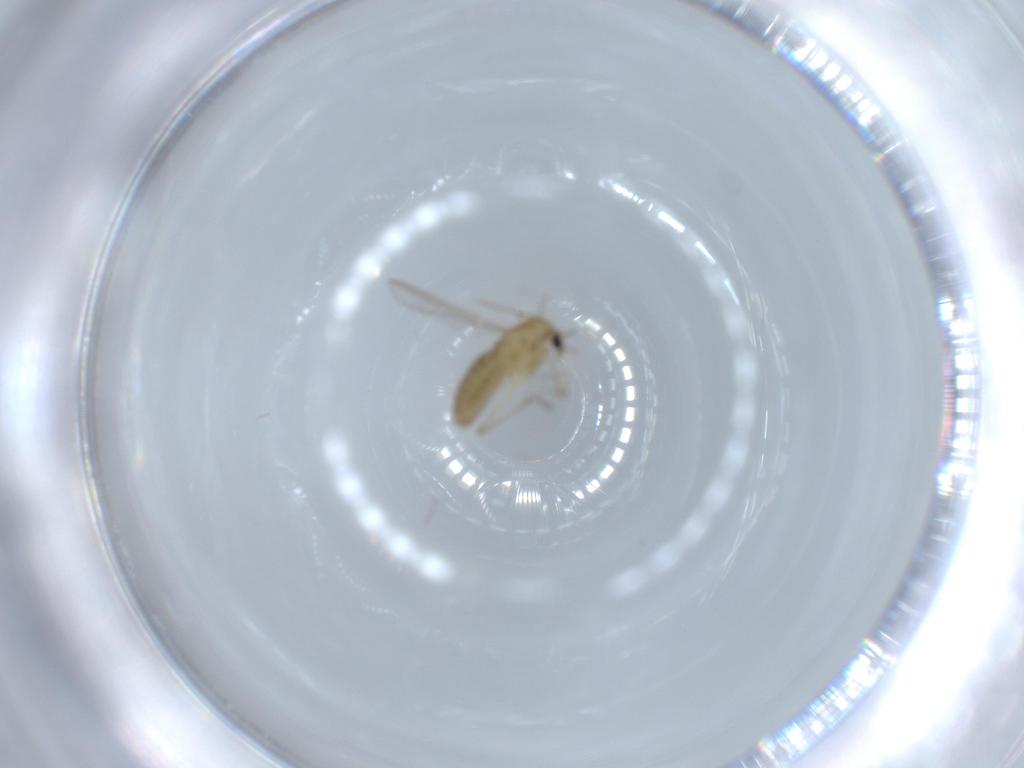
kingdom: Animalia
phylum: Arthropoda
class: Insecta
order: Diptera
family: Chironomidae
